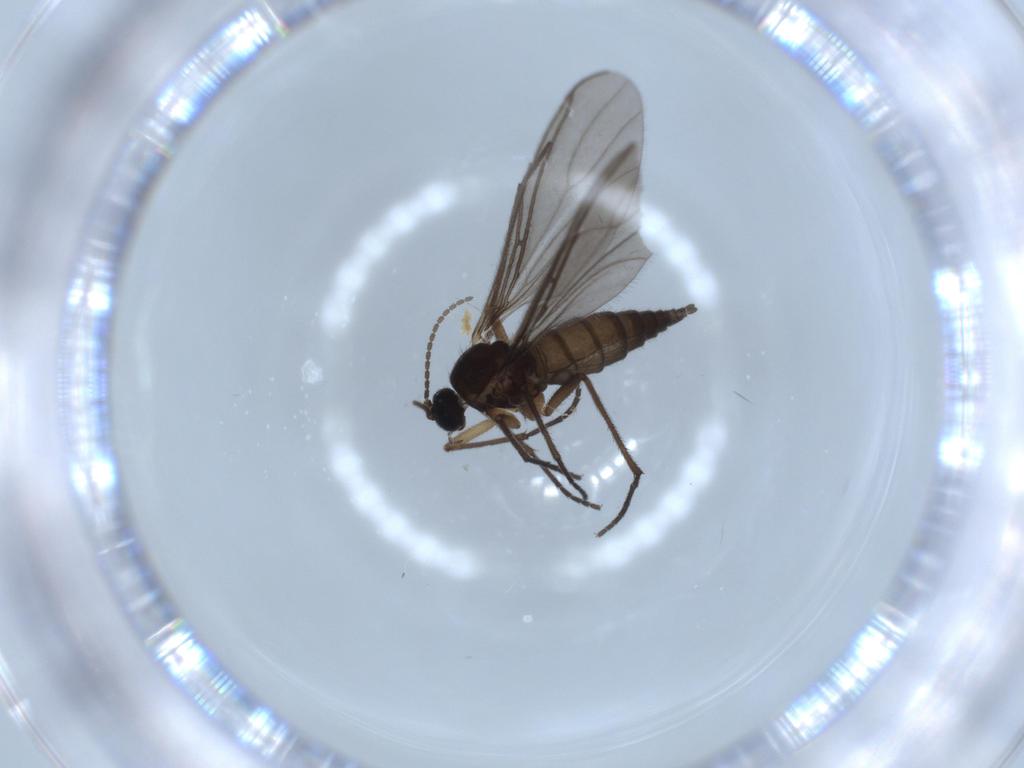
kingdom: Animalia
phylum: Arthropoda
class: Insecta
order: Diptera
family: Sciaridae
